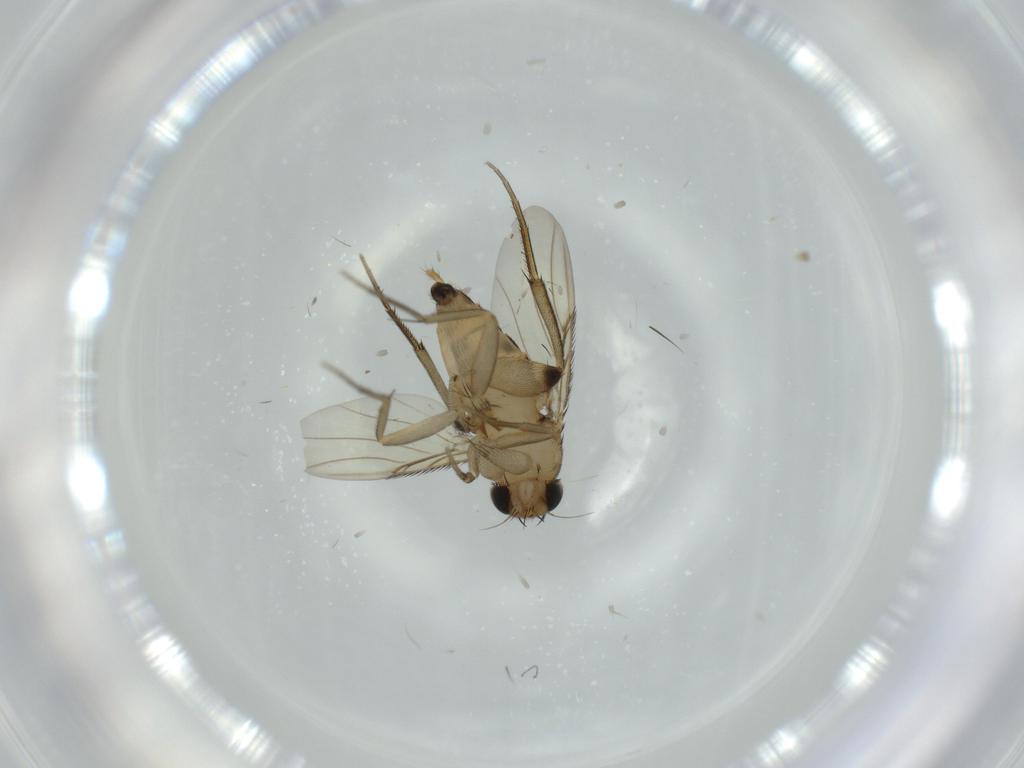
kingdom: Animalia
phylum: Arthropoda
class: Insecta
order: Diptera
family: Phoridae
